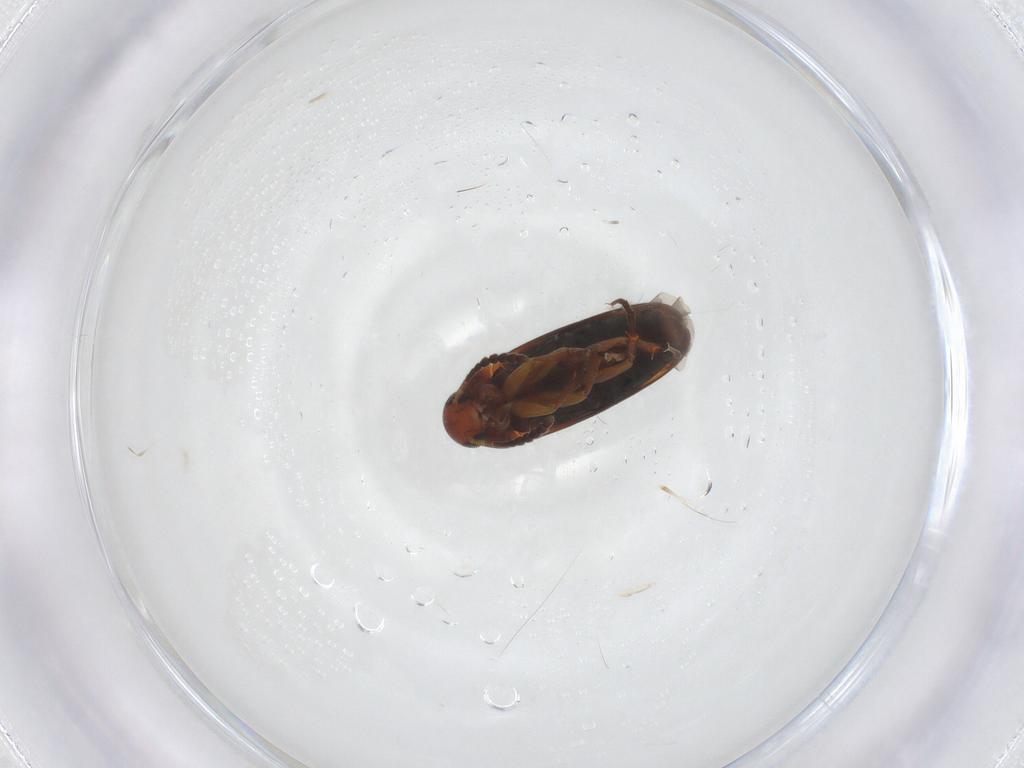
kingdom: Animalia
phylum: Arthropoda
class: Insecta
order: Coleoptera
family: Scraptiidae
